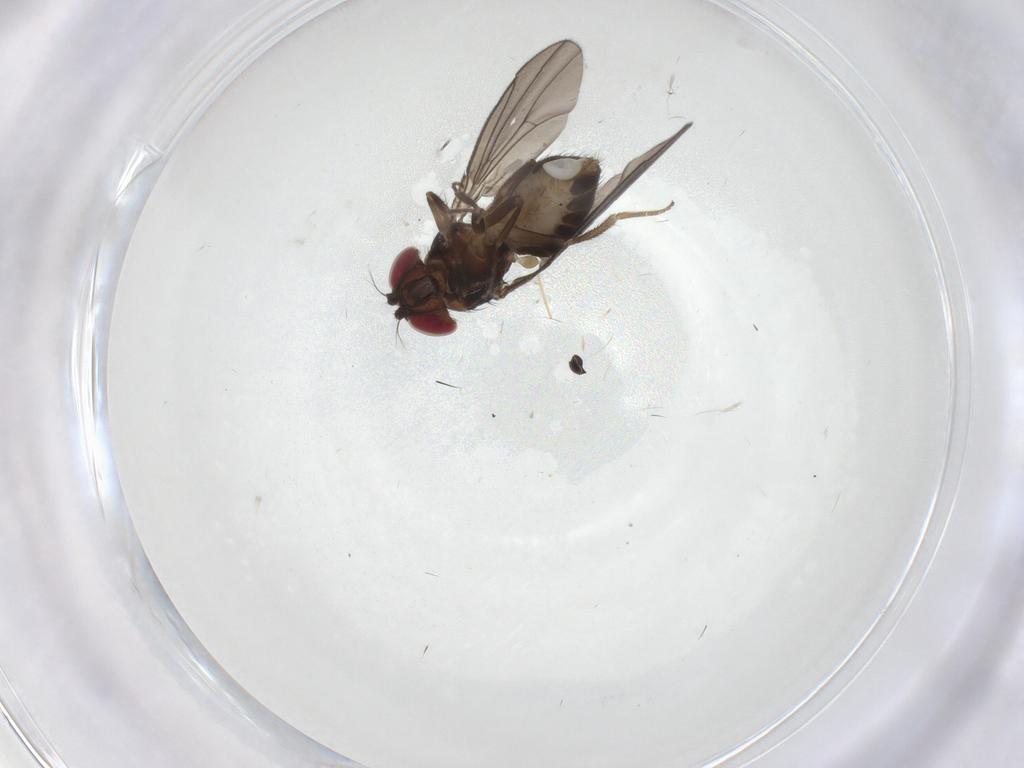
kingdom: Animalia
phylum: Arthropoda
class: Insecta
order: Diptera
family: Drosophilidae
